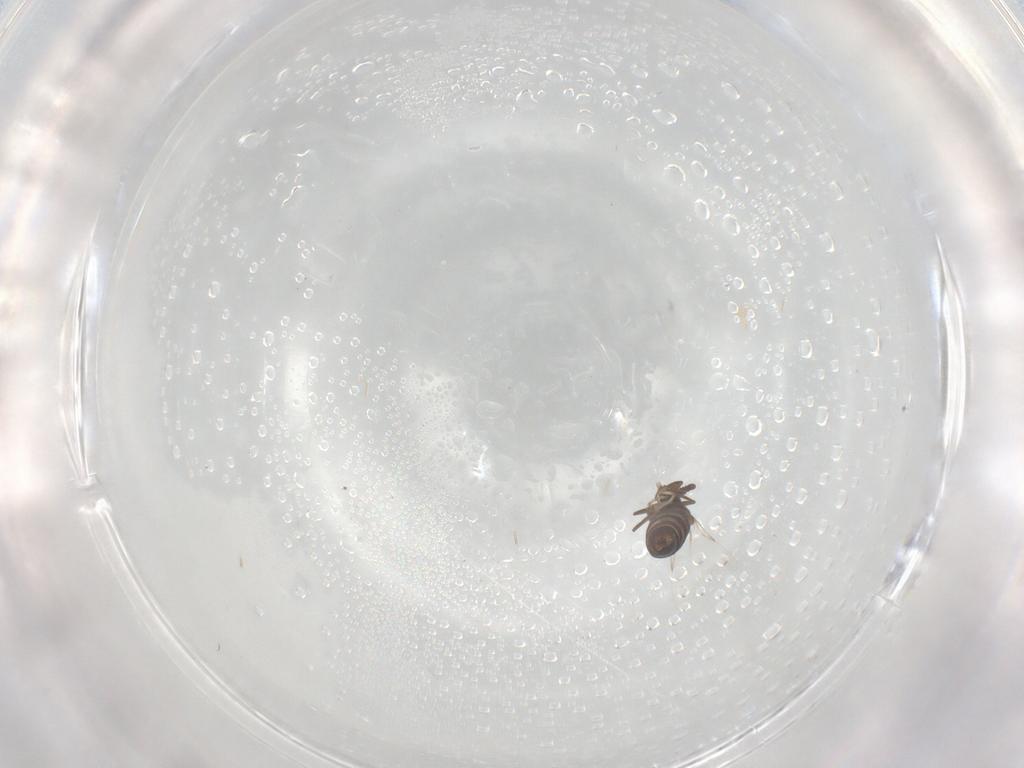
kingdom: Animalia
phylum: Arthropoda
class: Insecta
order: Diptera
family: Scatopsidae
